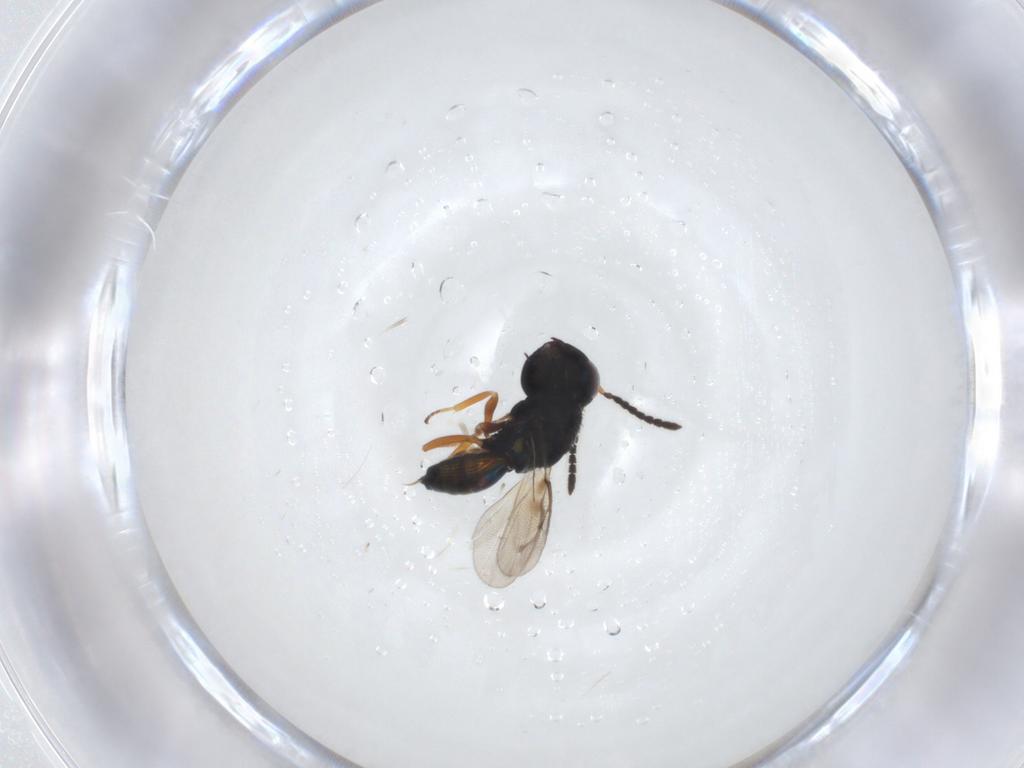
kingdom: Animalia
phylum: Arthropoda
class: Insecta
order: Hymenoptera
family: Pteromalidae
